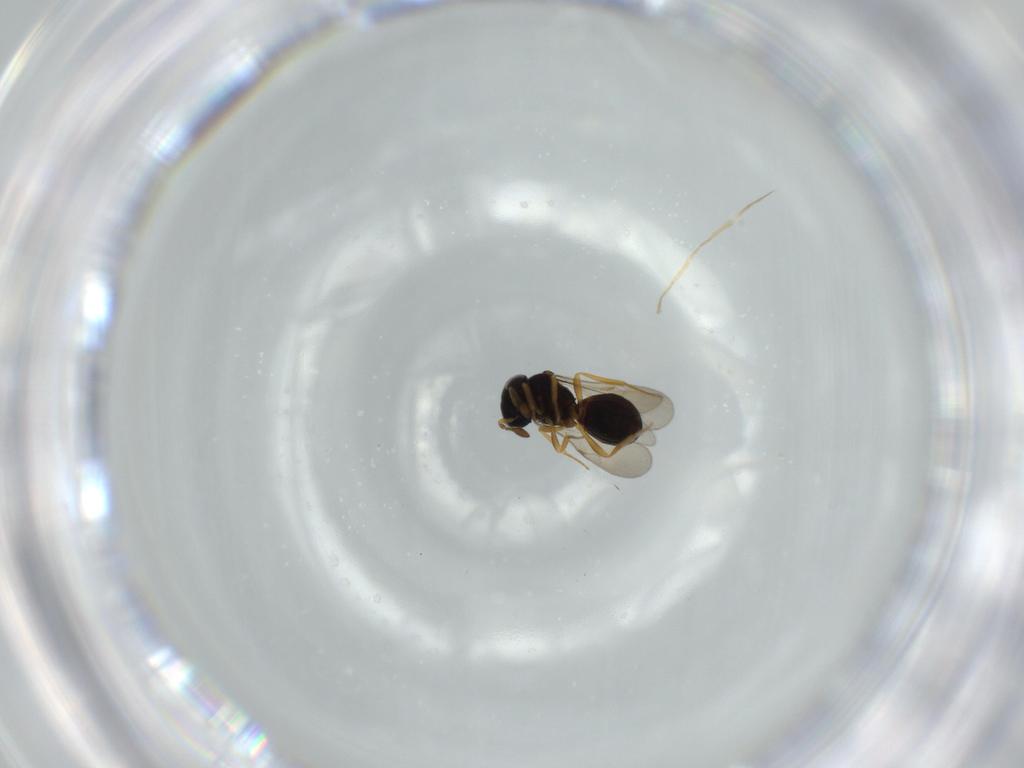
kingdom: Animalia
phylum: Arthropoda
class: Insecta
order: Hymenoptera
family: Scelionidae
